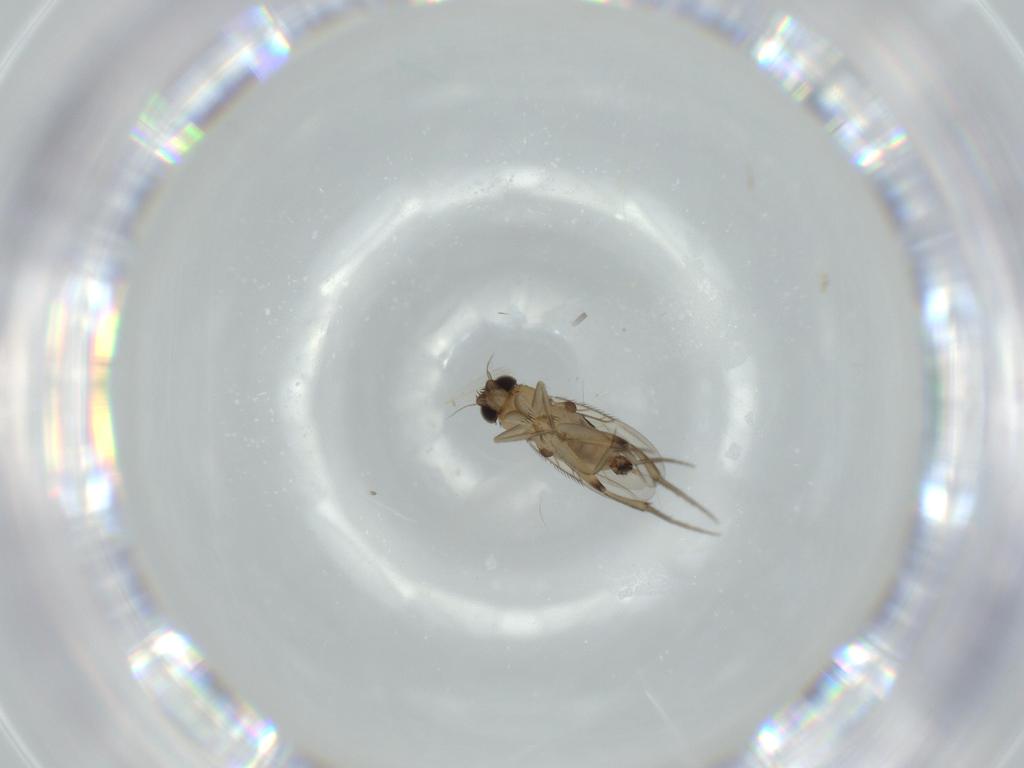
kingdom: Animalia
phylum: Arthropoda
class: Insecta
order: Diptera
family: Phoridae
